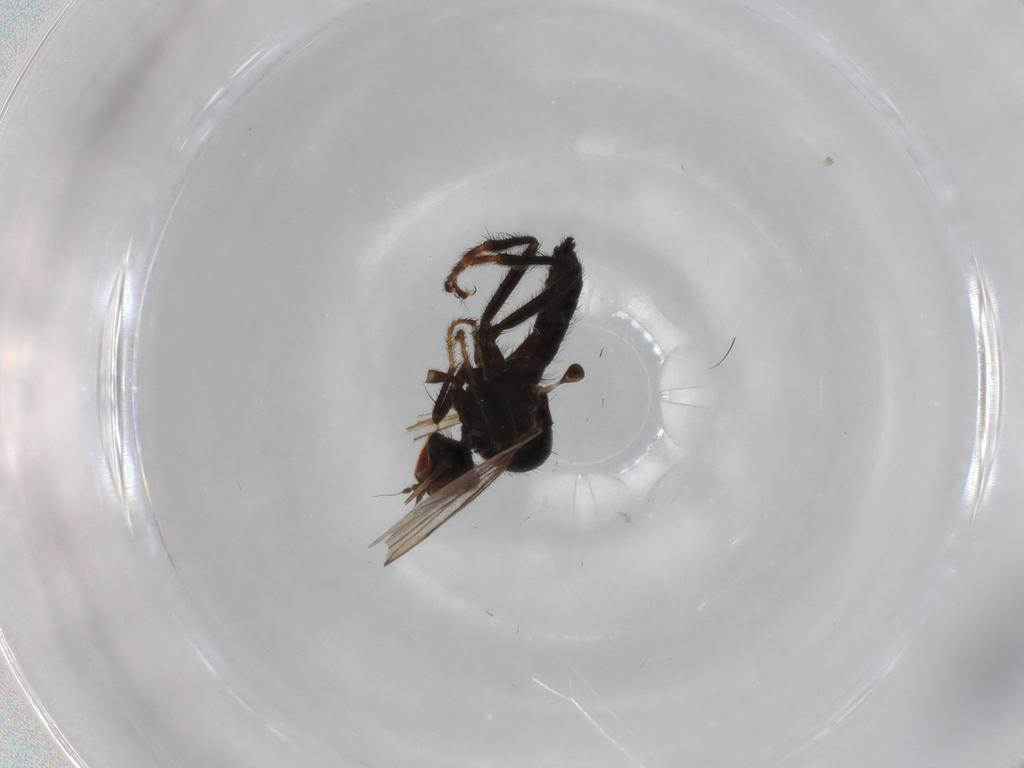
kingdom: Animalia
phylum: Arthropoda
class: Insecta
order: Diptera
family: Hybotidae
